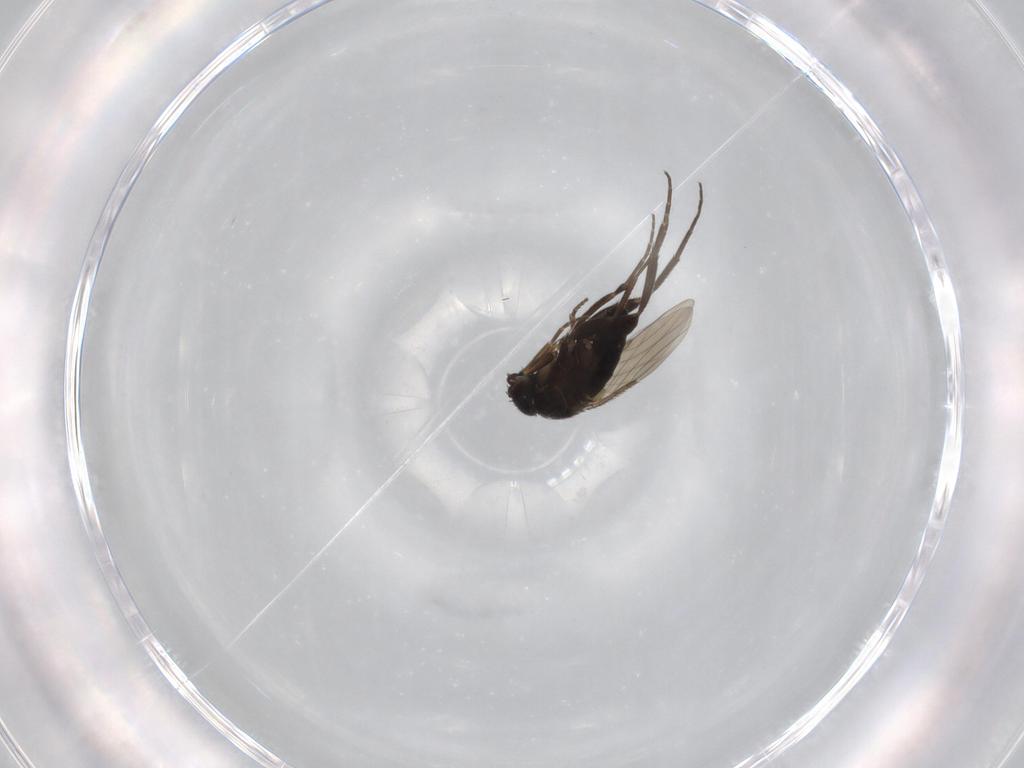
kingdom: Animalia
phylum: Arthropoda
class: Insecta
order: Diptera
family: Phoridae
